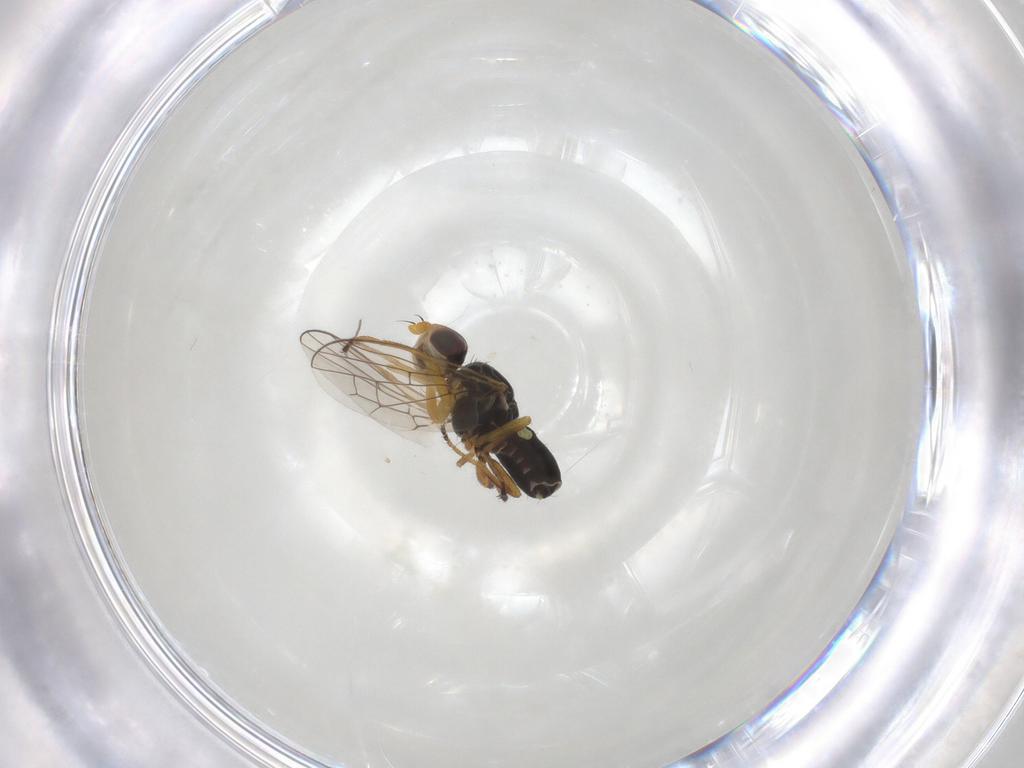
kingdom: Animalia
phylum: Arthropoda
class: Insecta
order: Diptera
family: Tephritidae
